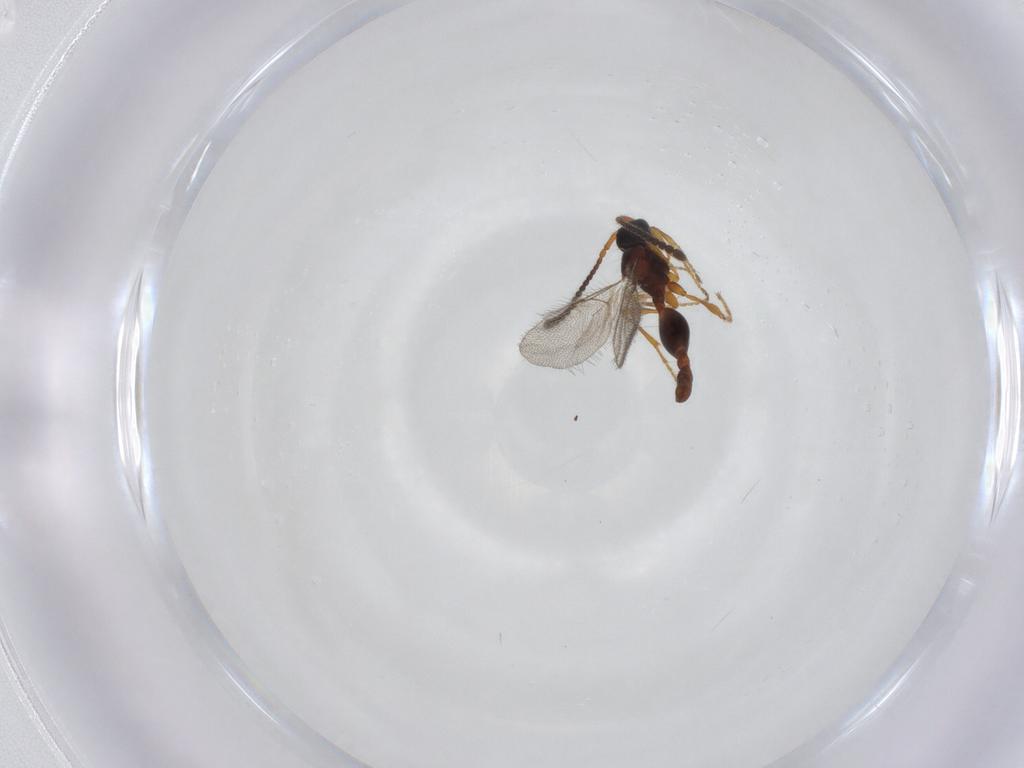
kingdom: Animalia
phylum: Arthropoda
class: Insecta
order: Hymenoptera
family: Diapriidae
